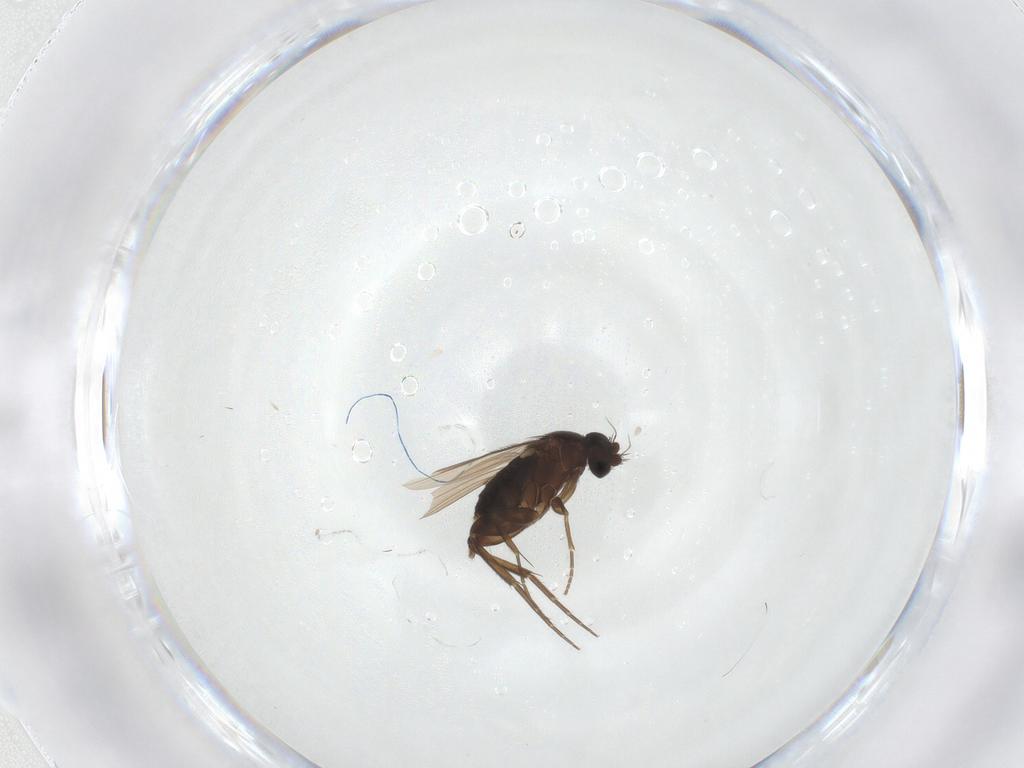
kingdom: Animalia
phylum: Arthropoda
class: Insecta
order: Diptera
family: Phoridae
